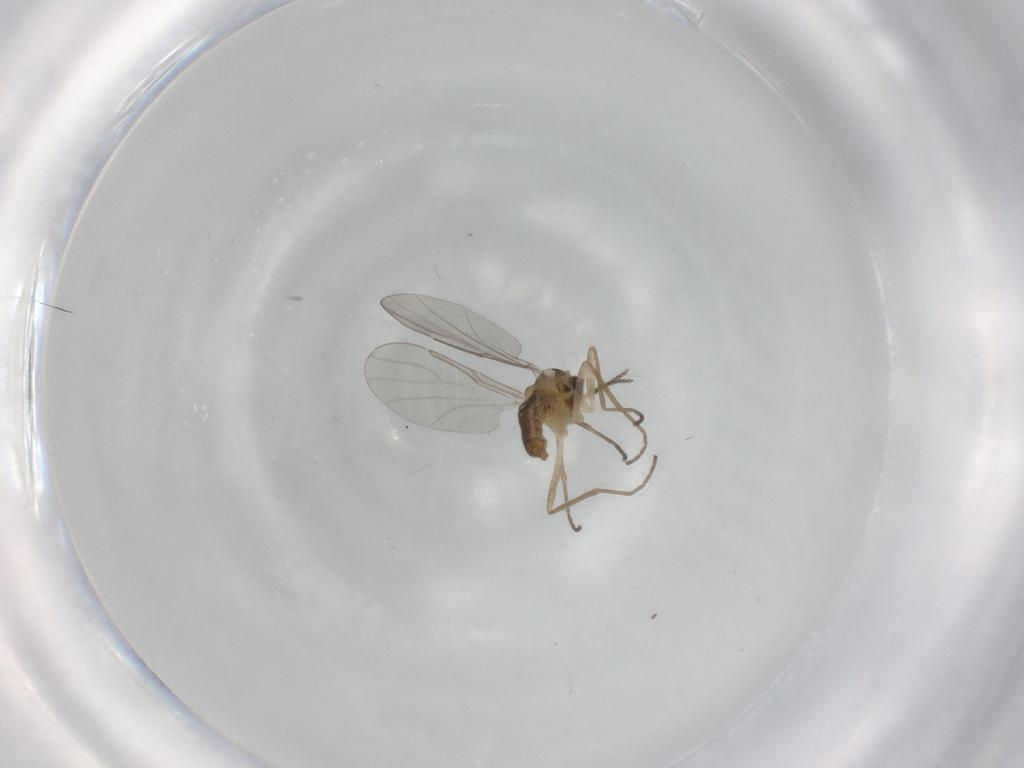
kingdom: Animalia
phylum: Arthropoda
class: Insecta
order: Diptera
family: Cecidomyiidae
